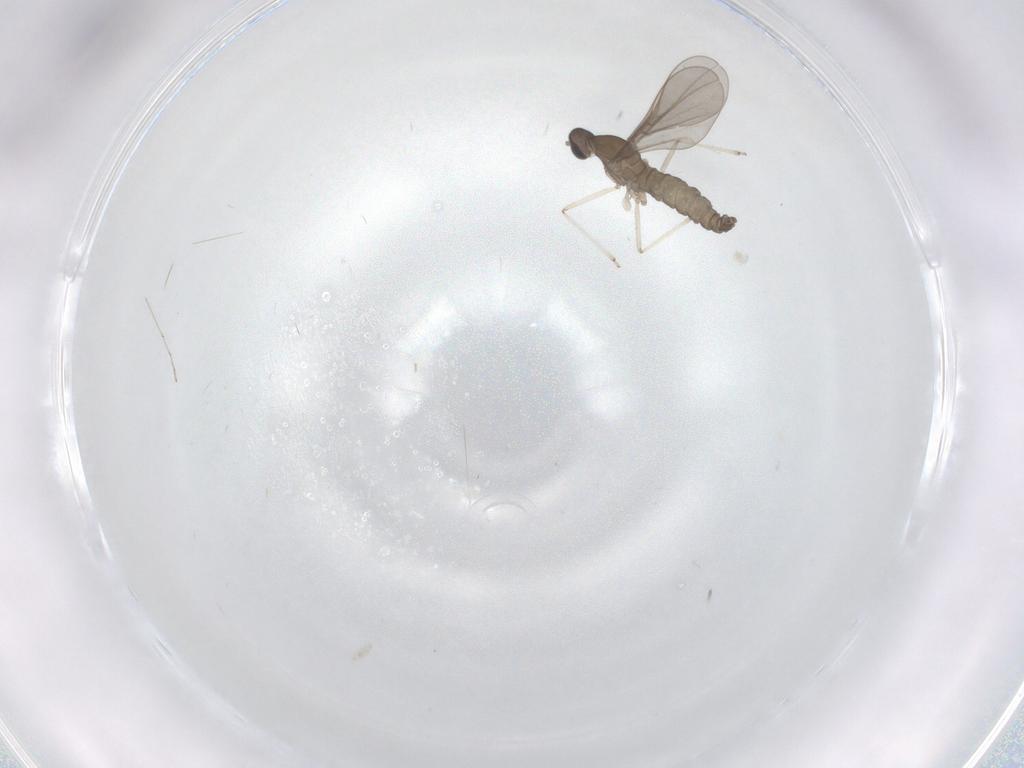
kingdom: Animalia
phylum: Arthropoda
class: Insecta
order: Diptera
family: Cecidomyiidae
